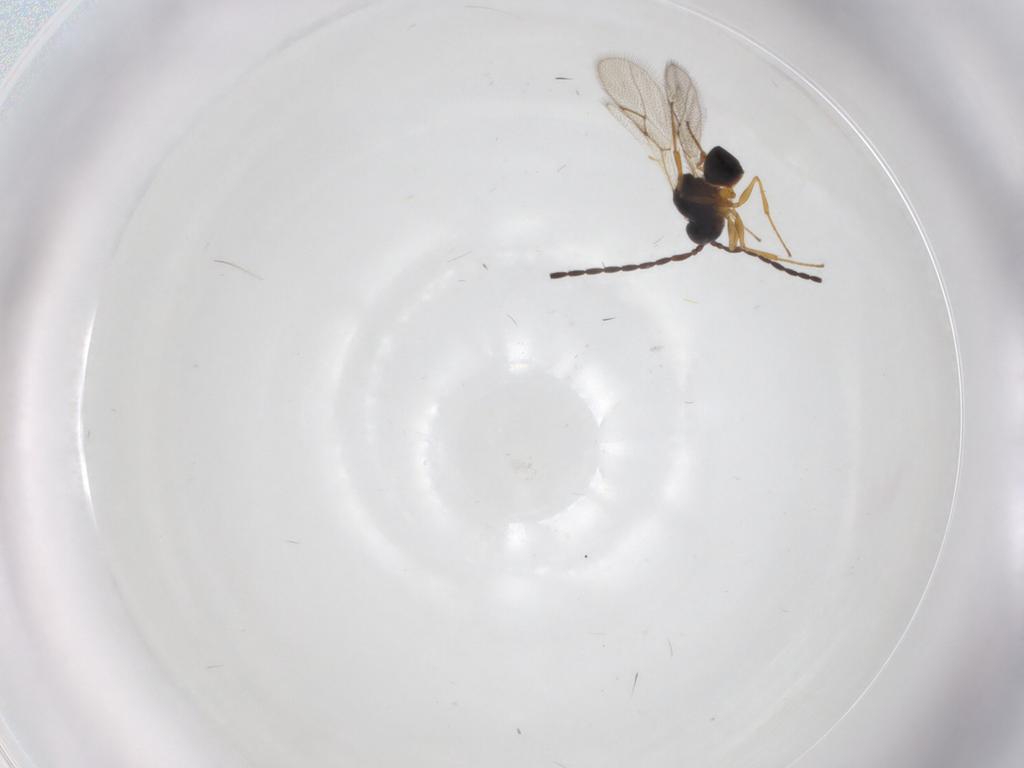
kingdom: Animalia
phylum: Arthropoda
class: Insecta
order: Hymenoptera
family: Figitidae
